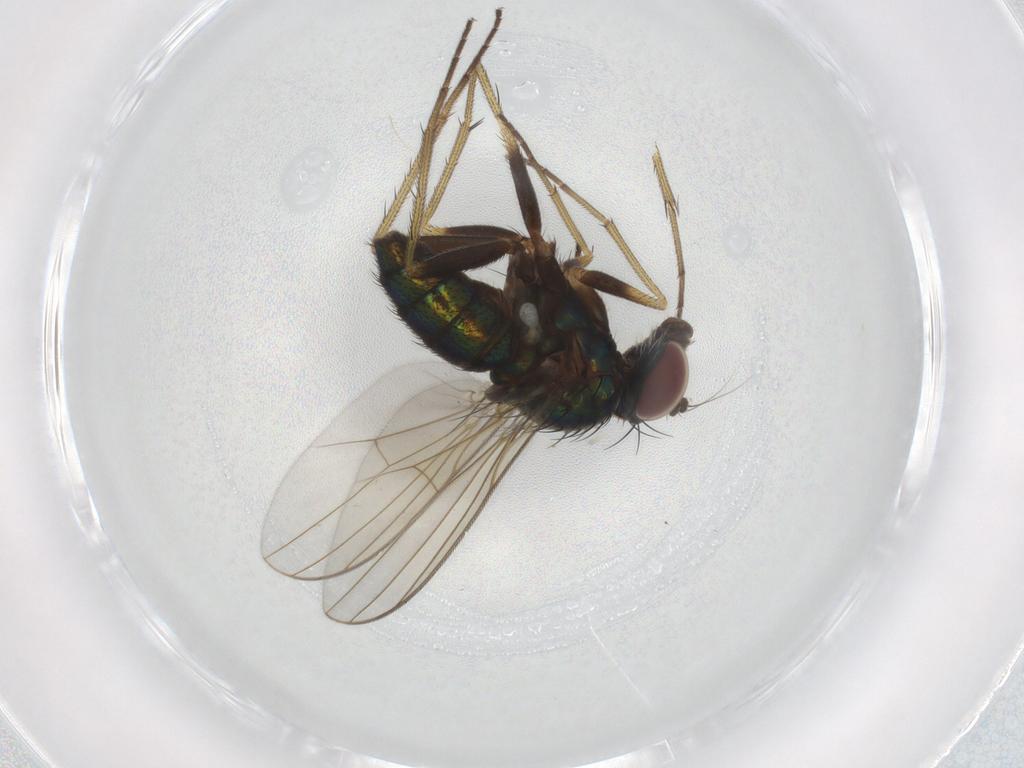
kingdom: Animalia
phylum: Arthropoda
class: Insecta
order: Diptera
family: Dolichopodidae
